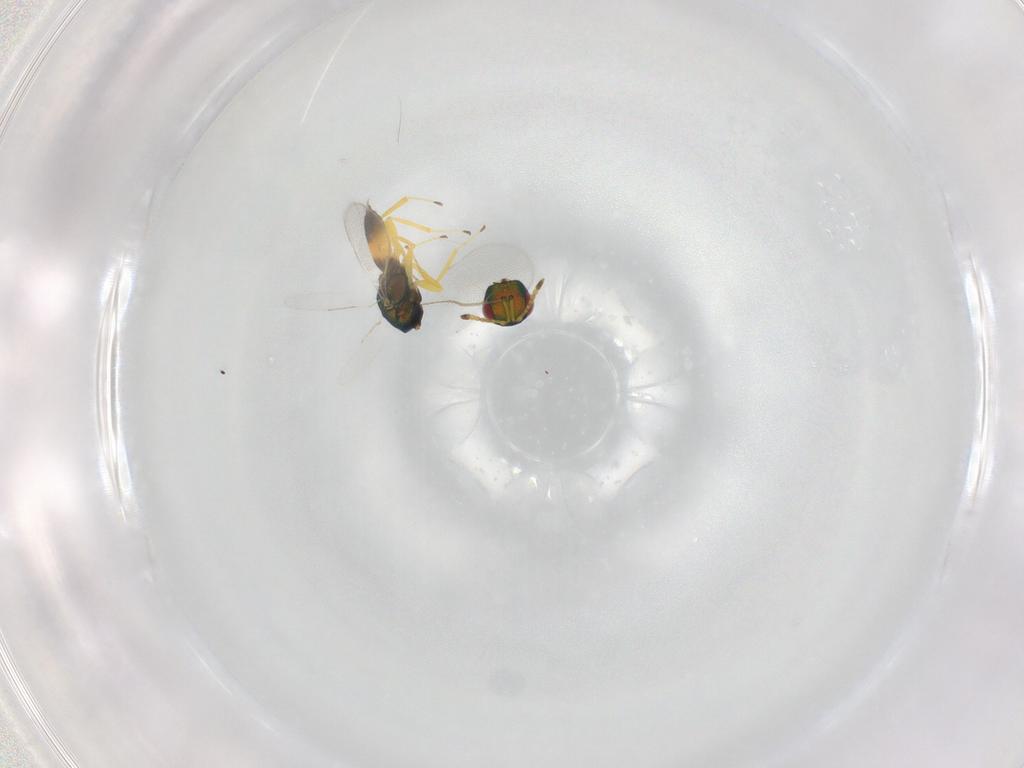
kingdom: Animalia
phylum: Arthropoda
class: Insecta
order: Hymenoptera
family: Pteromalidae
